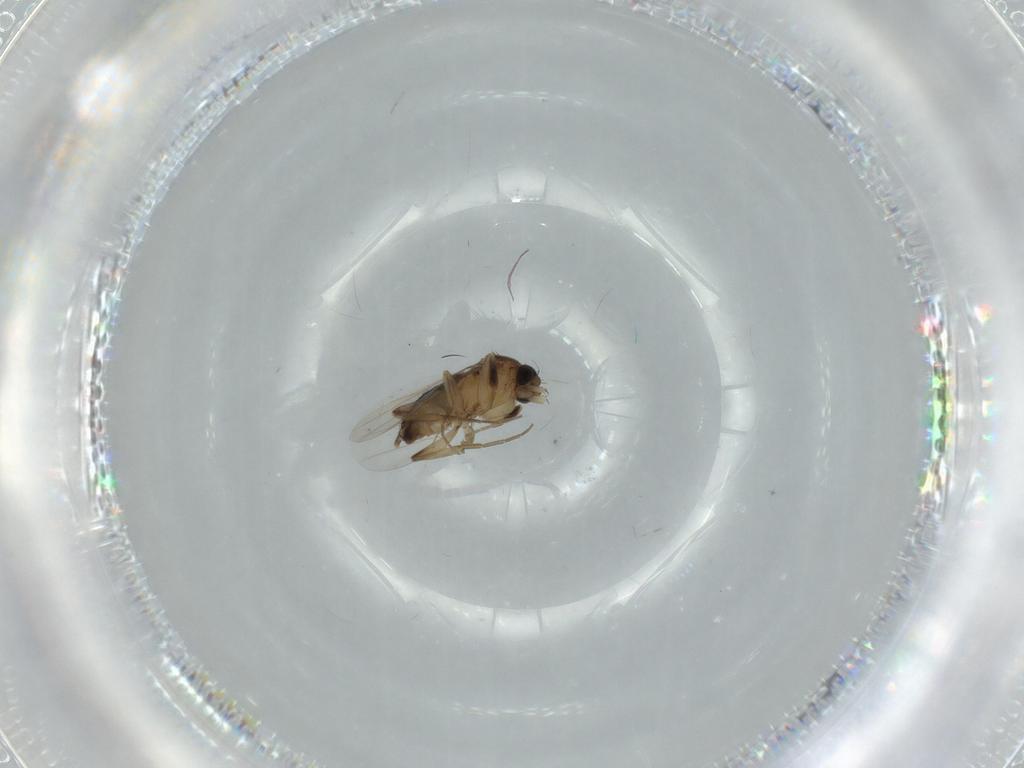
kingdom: Animalia
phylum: Arthropoda
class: Insecta
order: Diptera
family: Phoridae
